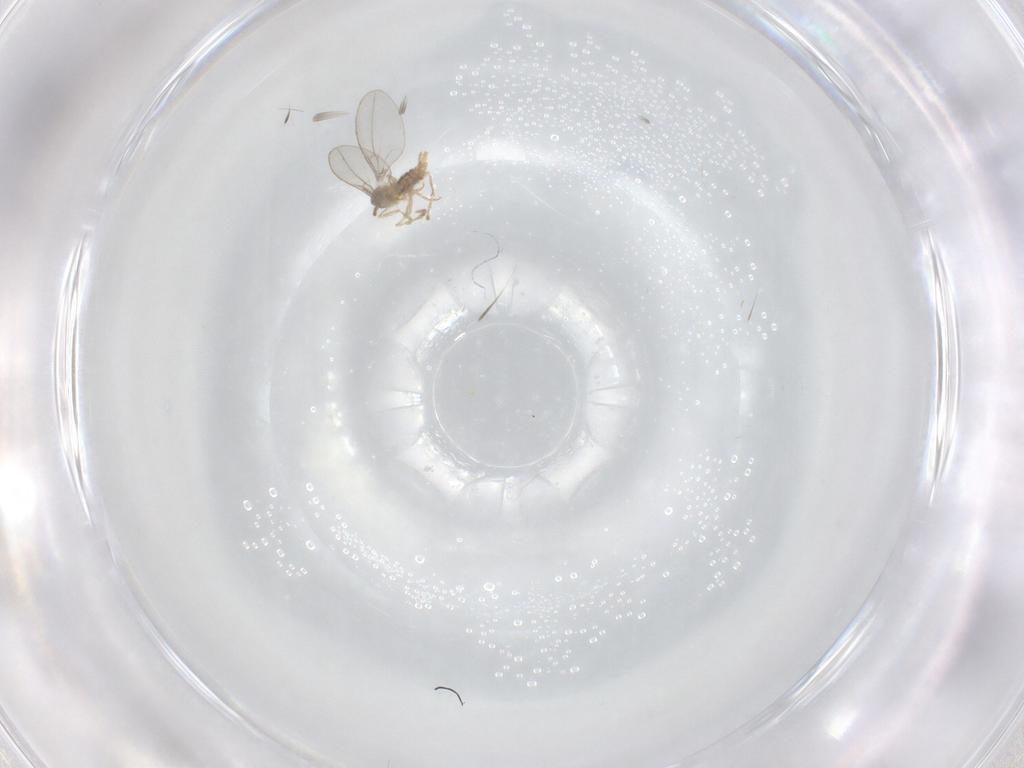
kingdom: Animalia
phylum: Arthropoda
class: Insecta
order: Diptera
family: Cecidomyiidae
